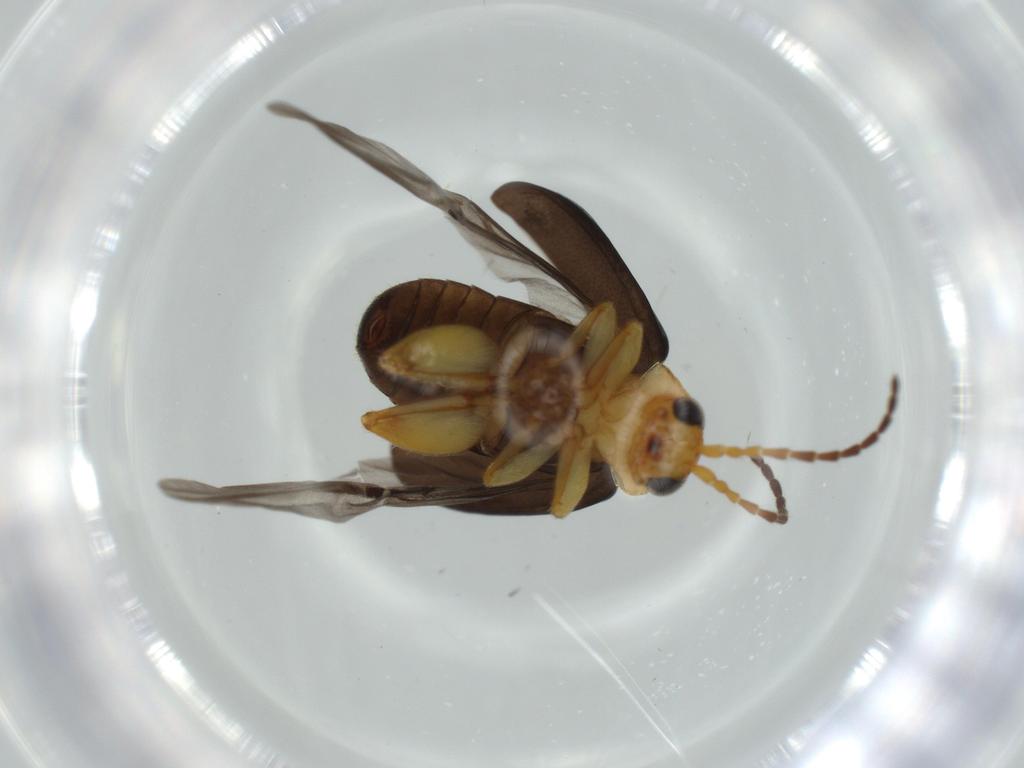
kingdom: Animalia
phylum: Arthropoda
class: Insecta
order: Coleoptera
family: Chrysomelidae
